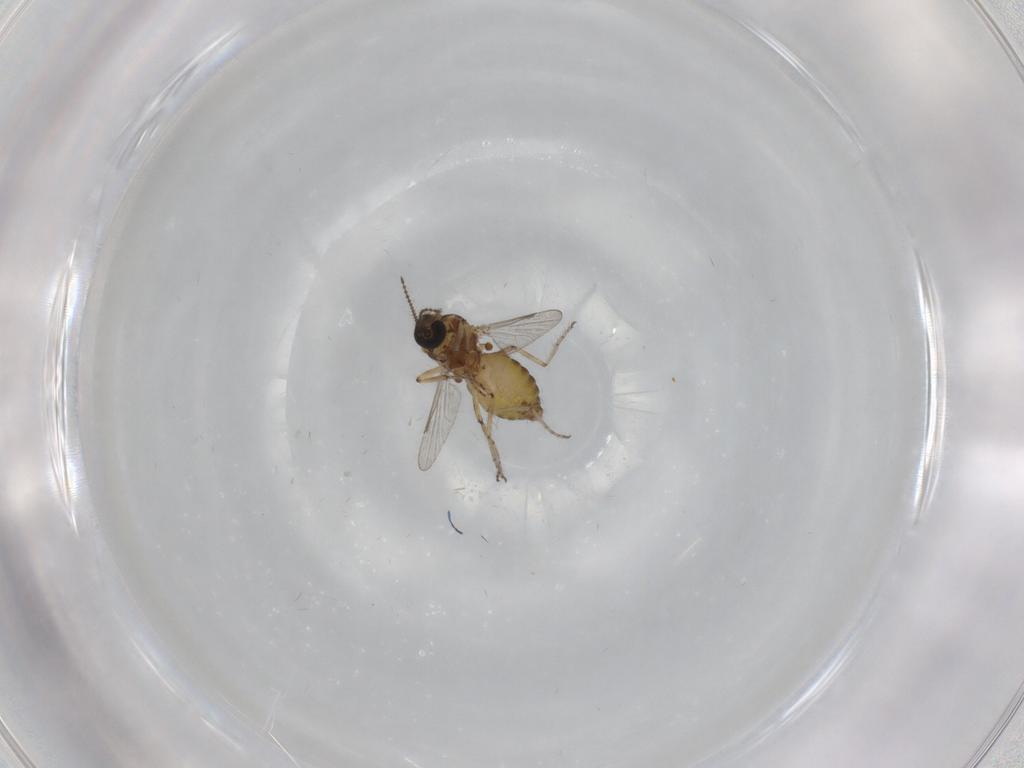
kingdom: Animalia
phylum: Arthropoda
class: Insecta
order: Diptera
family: Ceratopogonidae
